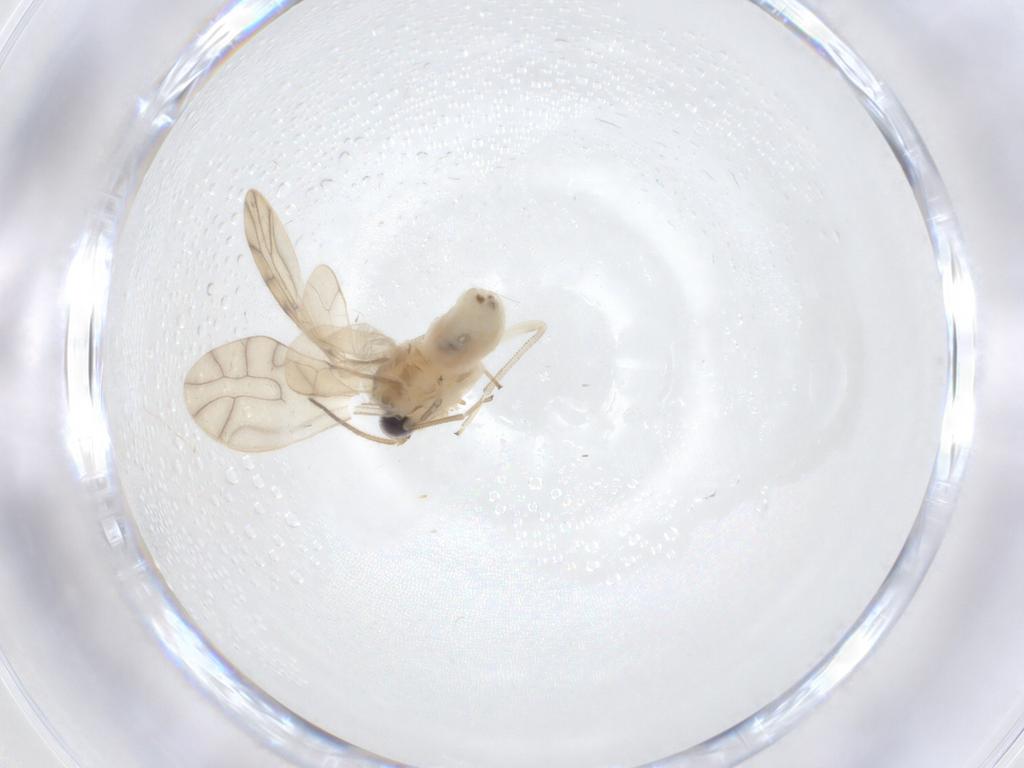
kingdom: Animalia
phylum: Arthropoda
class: Insecta
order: Psocodea
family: Caeciliusidae
